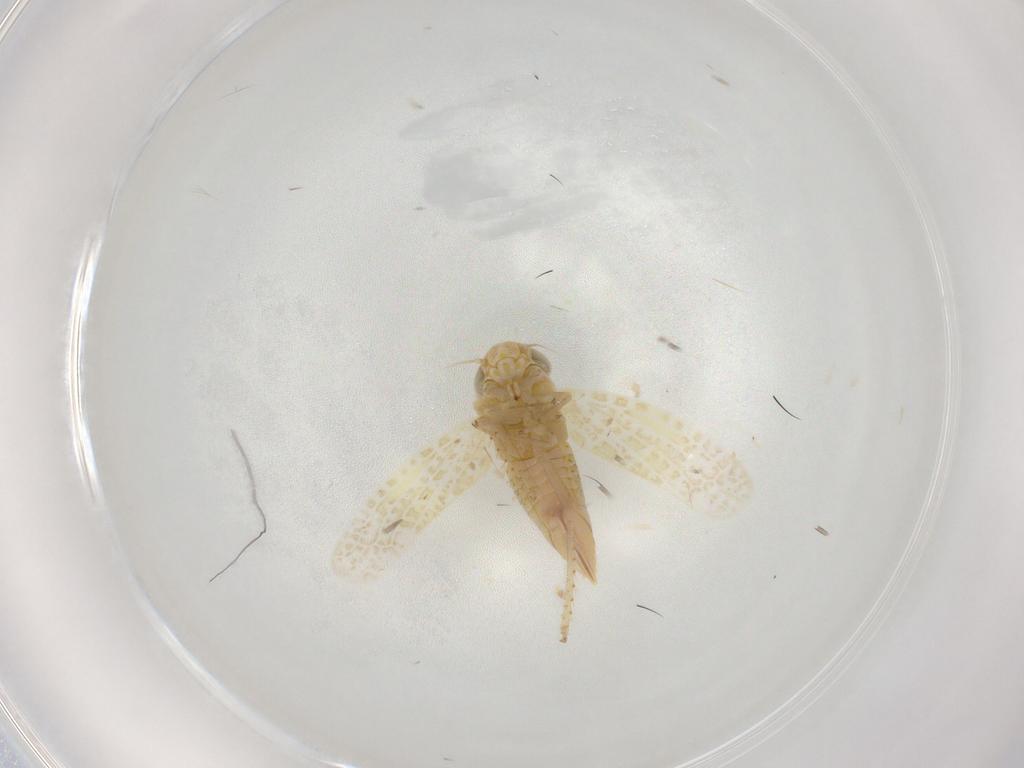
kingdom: Animalia
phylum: Arthropoda
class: Insecta
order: Hemiptera
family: Cicadellidae
